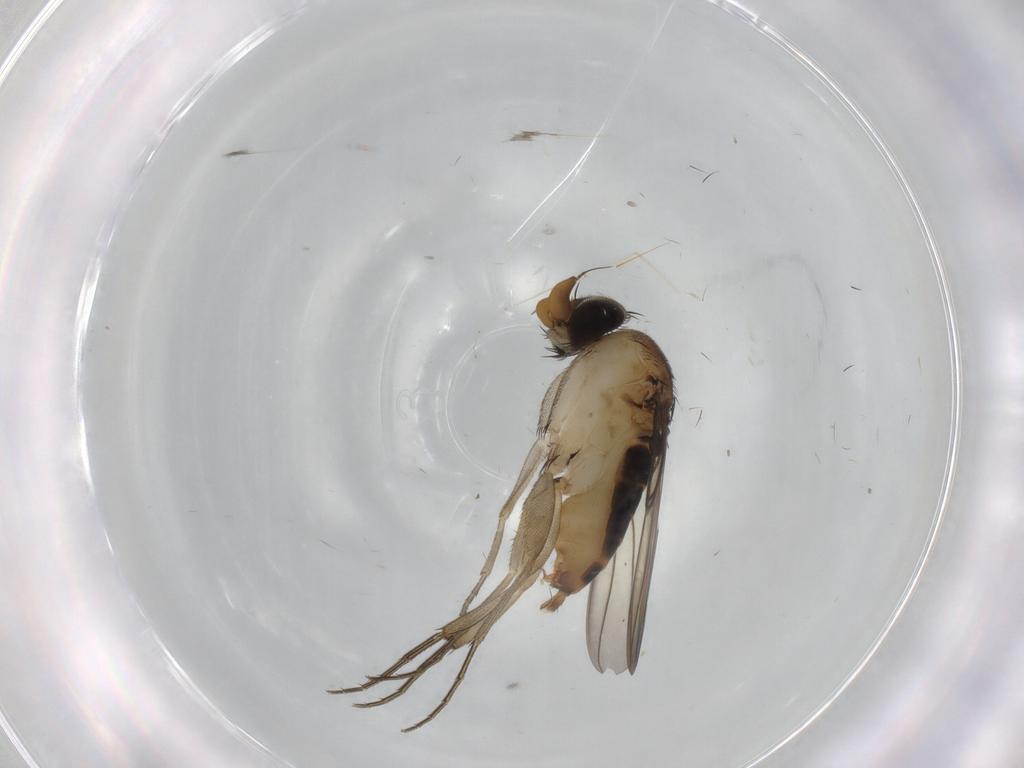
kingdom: Animalia
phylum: Arthropoda
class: Insecta
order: Diptera
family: Phoridae
